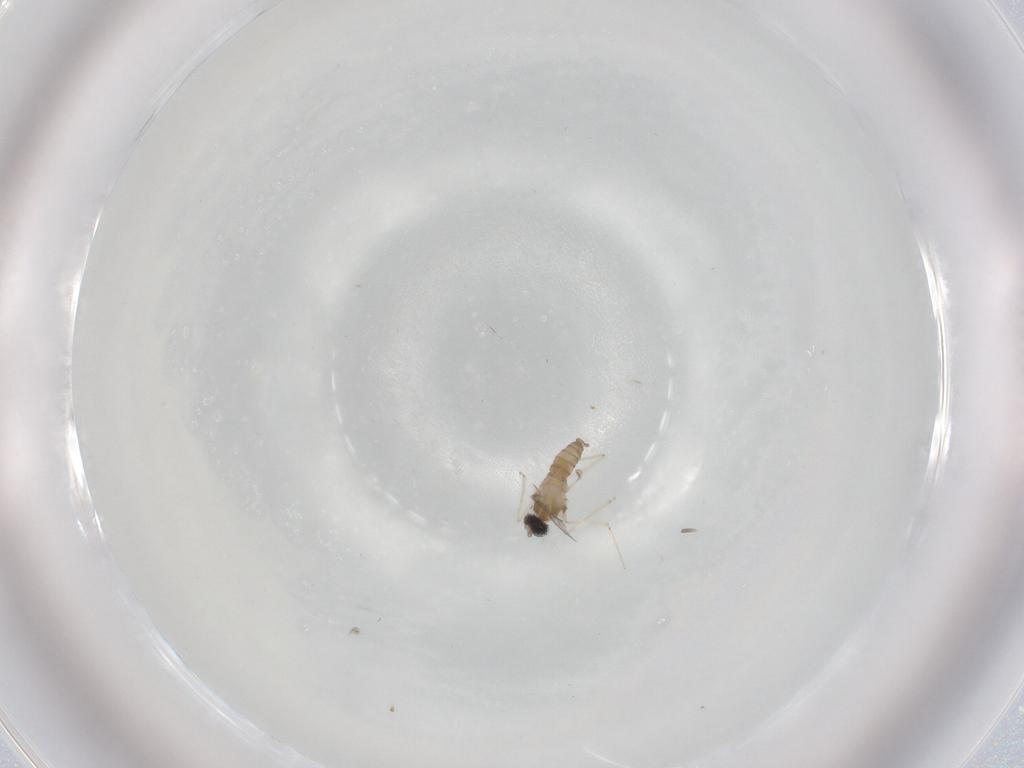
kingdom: Animalia
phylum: Arthropoda
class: Insecta
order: Diptera
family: Cecidomyiidae
